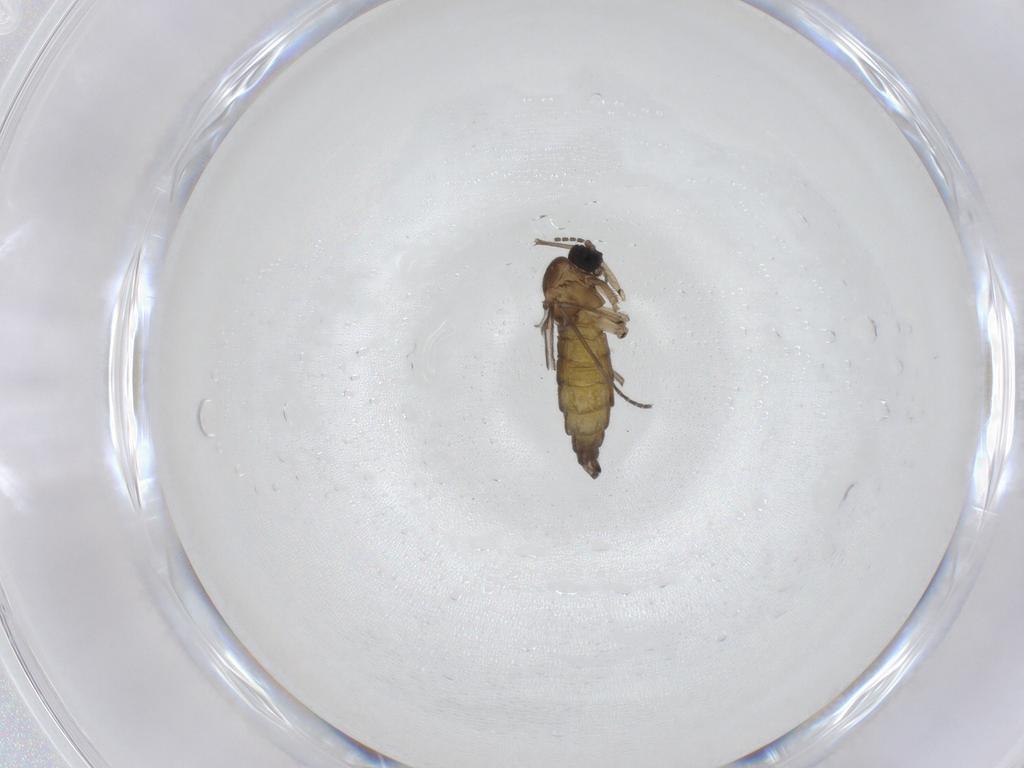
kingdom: Animalia
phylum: Arthropoda
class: Insecta
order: Diptera
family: Sciaridae
